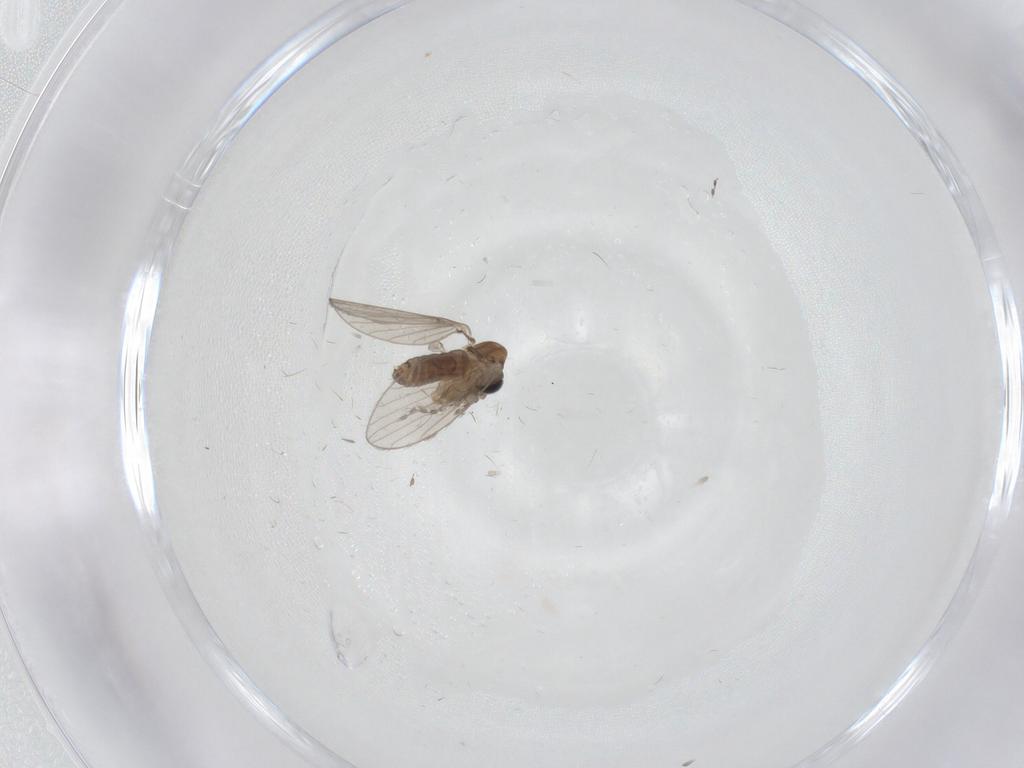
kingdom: Animalia
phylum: Arthropoda
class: Insecta
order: Diptera
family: Psychodidae
